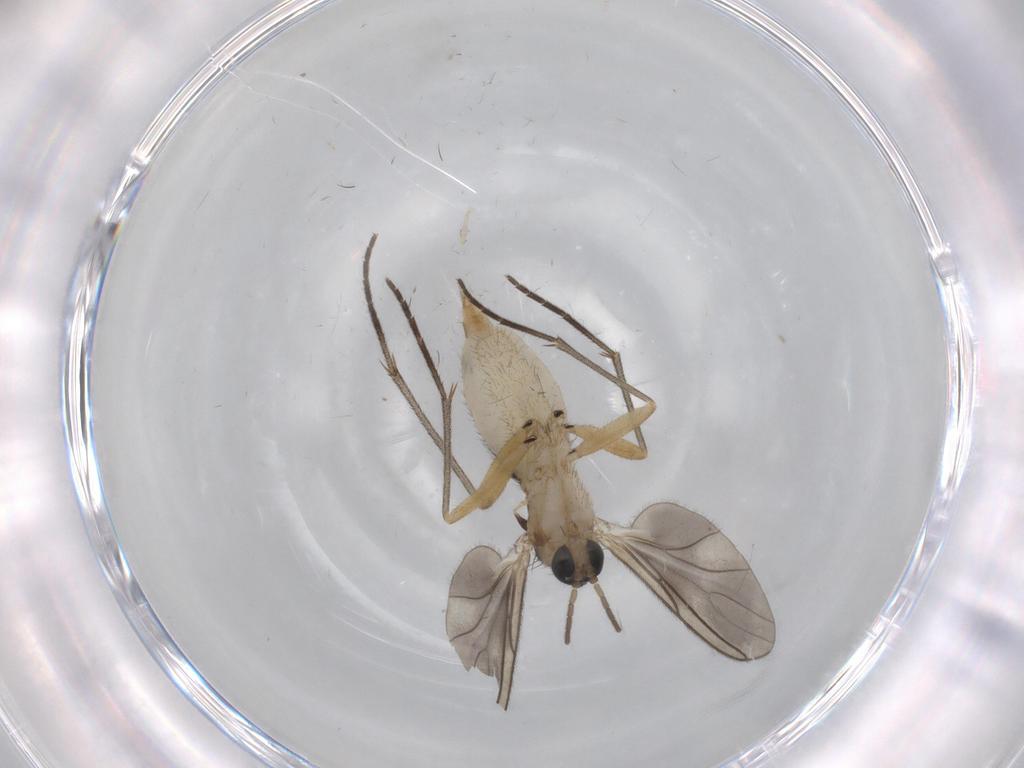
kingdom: Animalia
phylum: Arthropoda
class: Insecta
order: Diptera
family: Sciaridae
